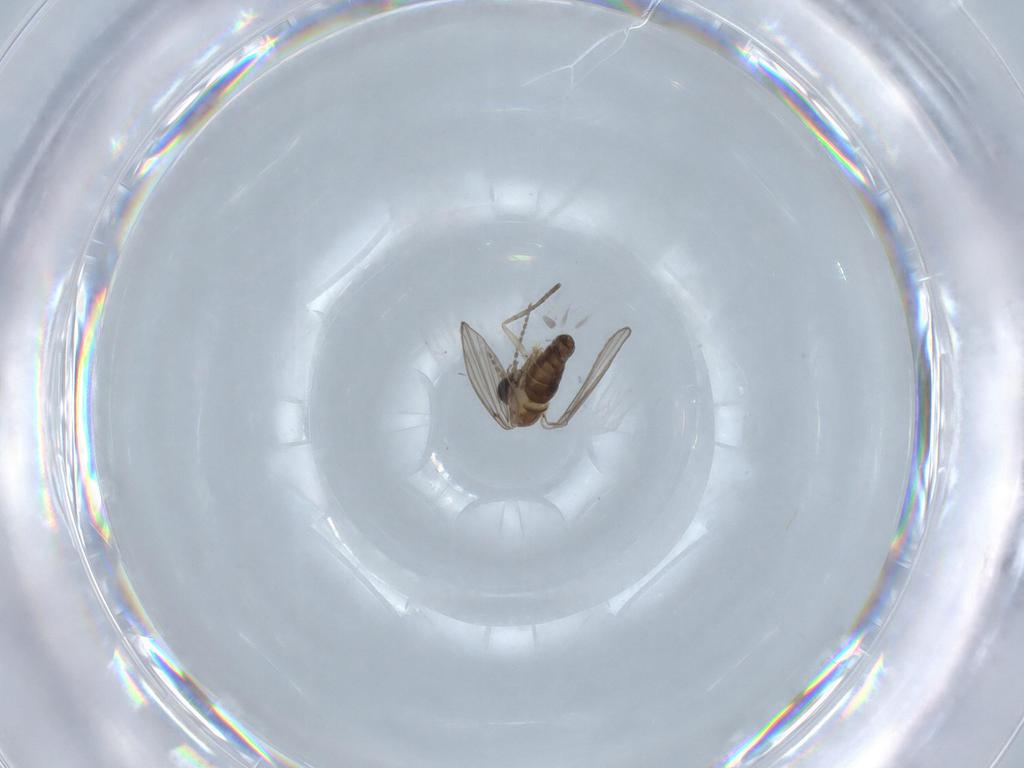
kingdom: Animalia
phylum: Arthropoda
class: Insecta
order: Diptera
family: Psychodidae
